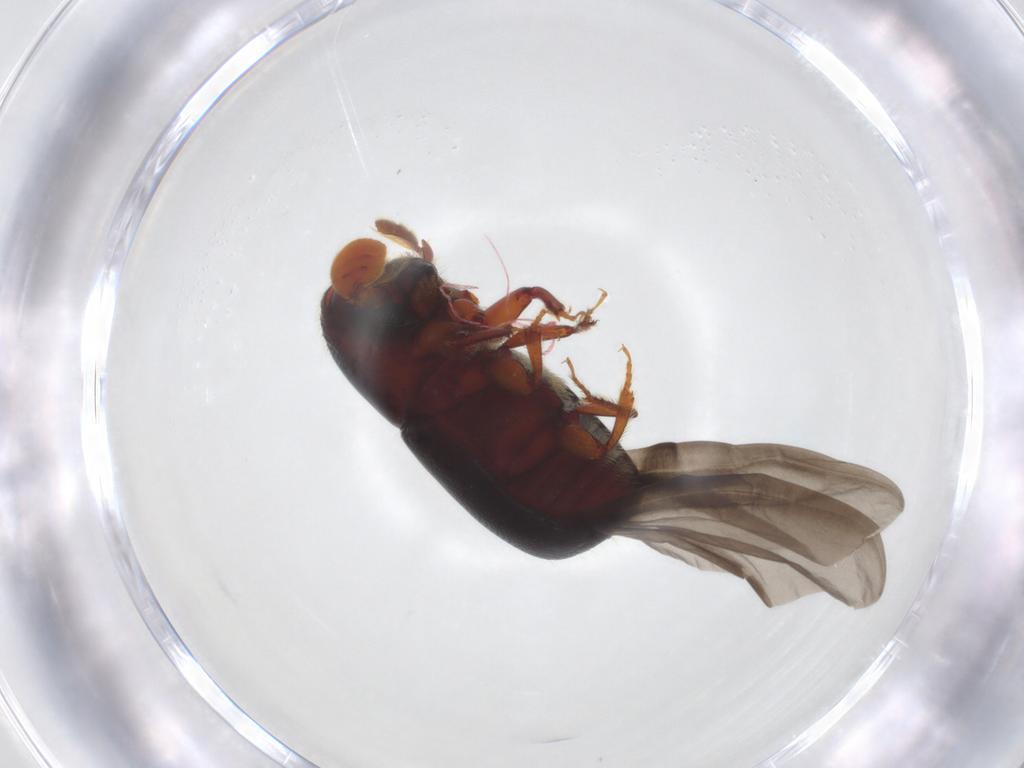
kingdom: Animalia
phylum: Arthropoda
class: Insecta
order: Coleoptera
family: Curculionidae
